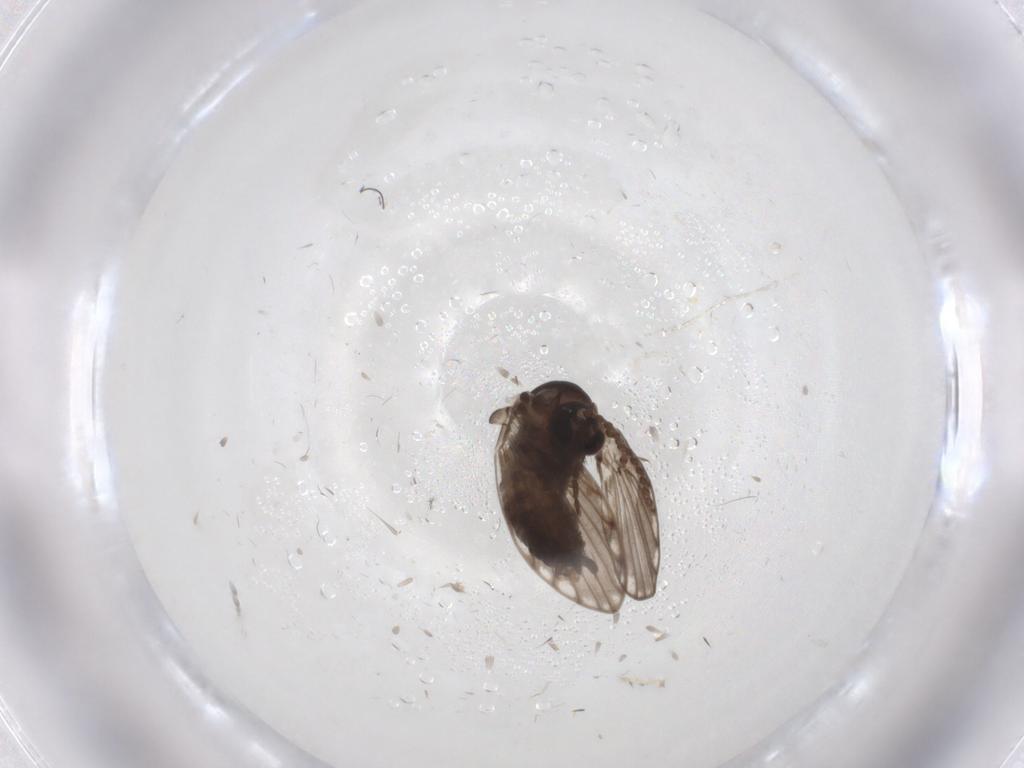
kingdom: Animalia
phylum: Arthropoda
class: Insecta
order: Diptera
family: Psychodidae
